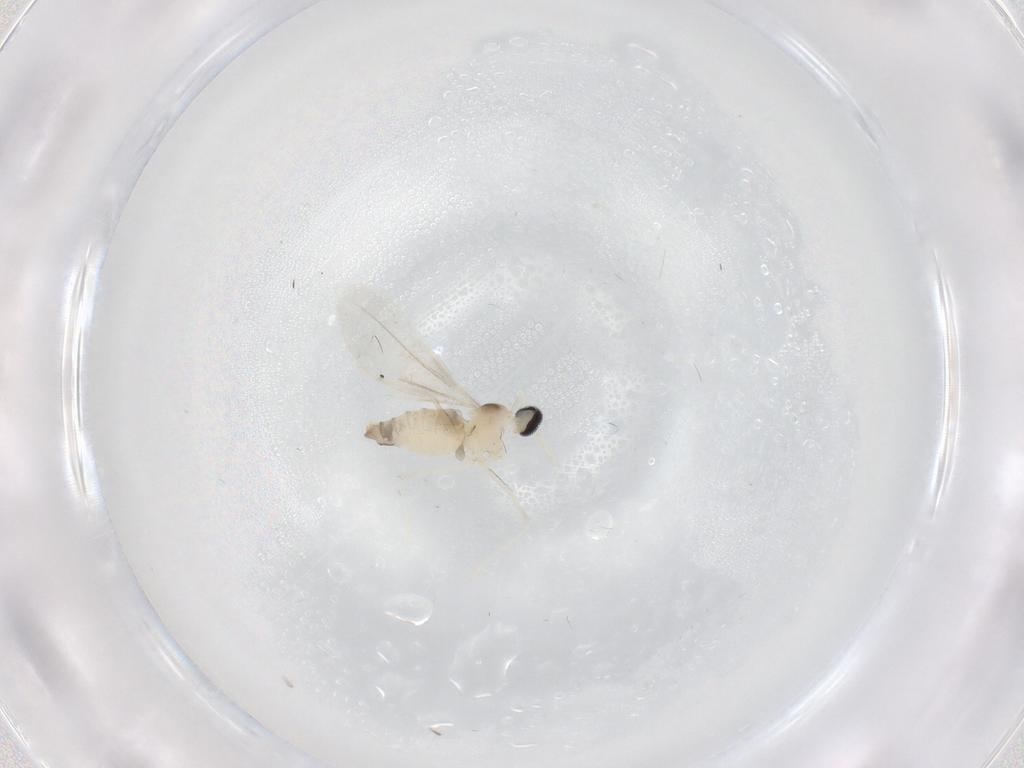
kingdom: Animalia
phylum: Arthropoda
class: Insecta
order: Diptera
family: Cecidomyiidae
